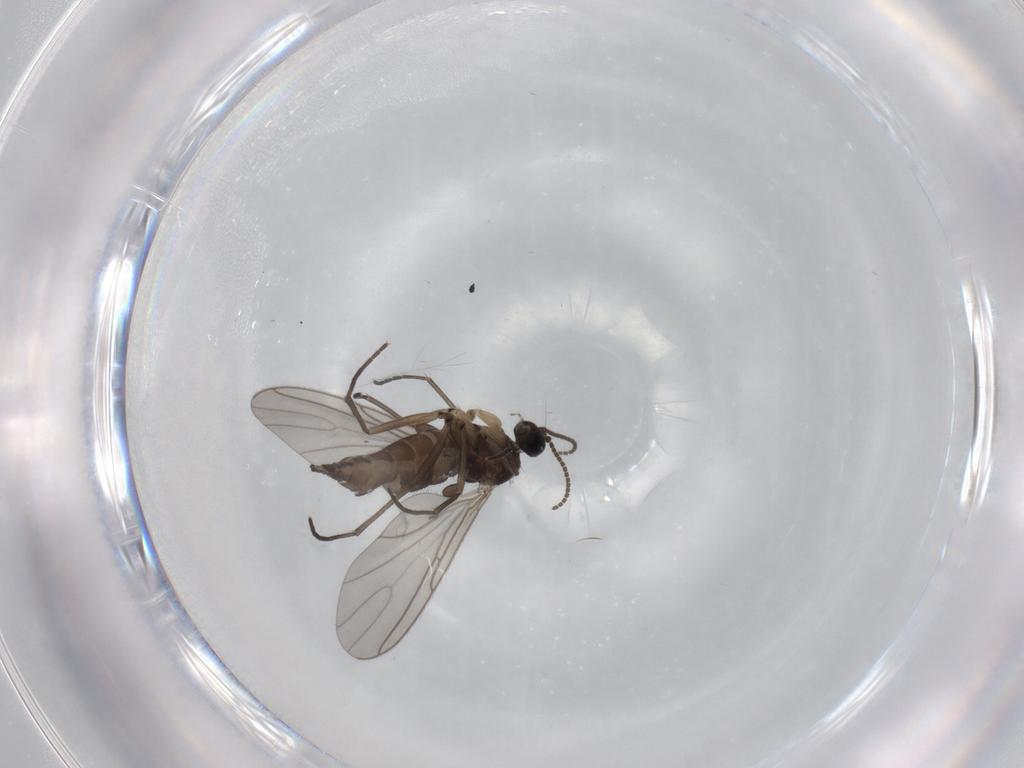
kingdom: Animalia
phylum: Arthropoda
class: Insecta
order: Diptera
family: Sciaridae
